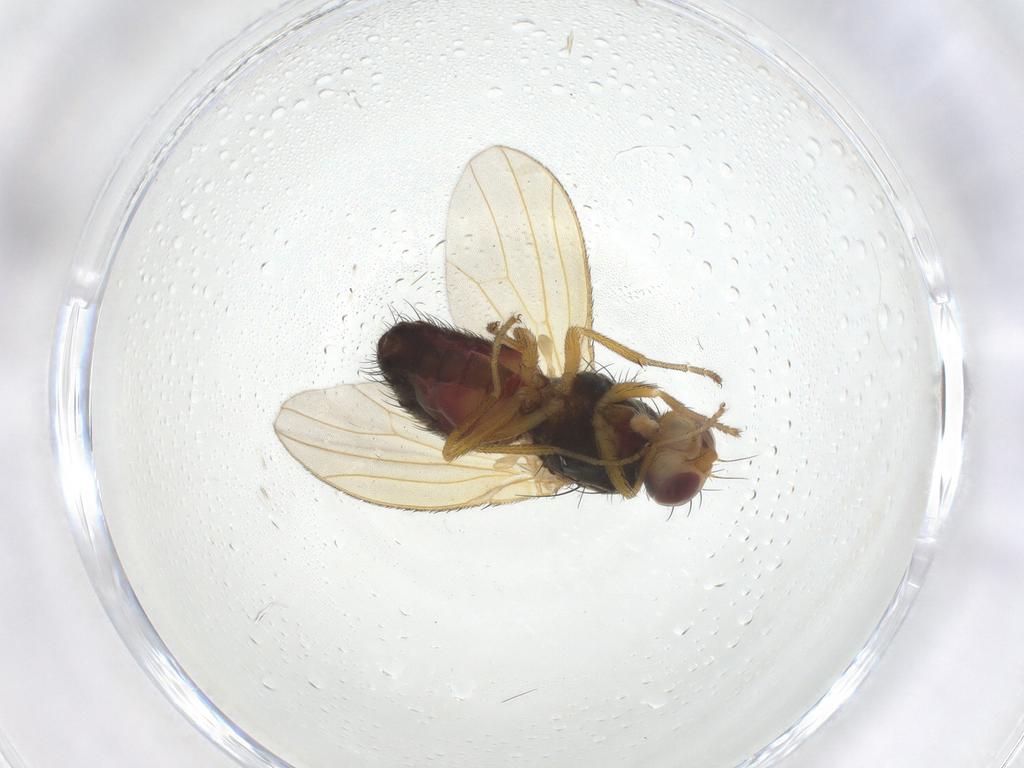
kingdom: Animalia
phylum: Arthropoda
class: Insecta
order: Diptera
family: Heleomyzidae
